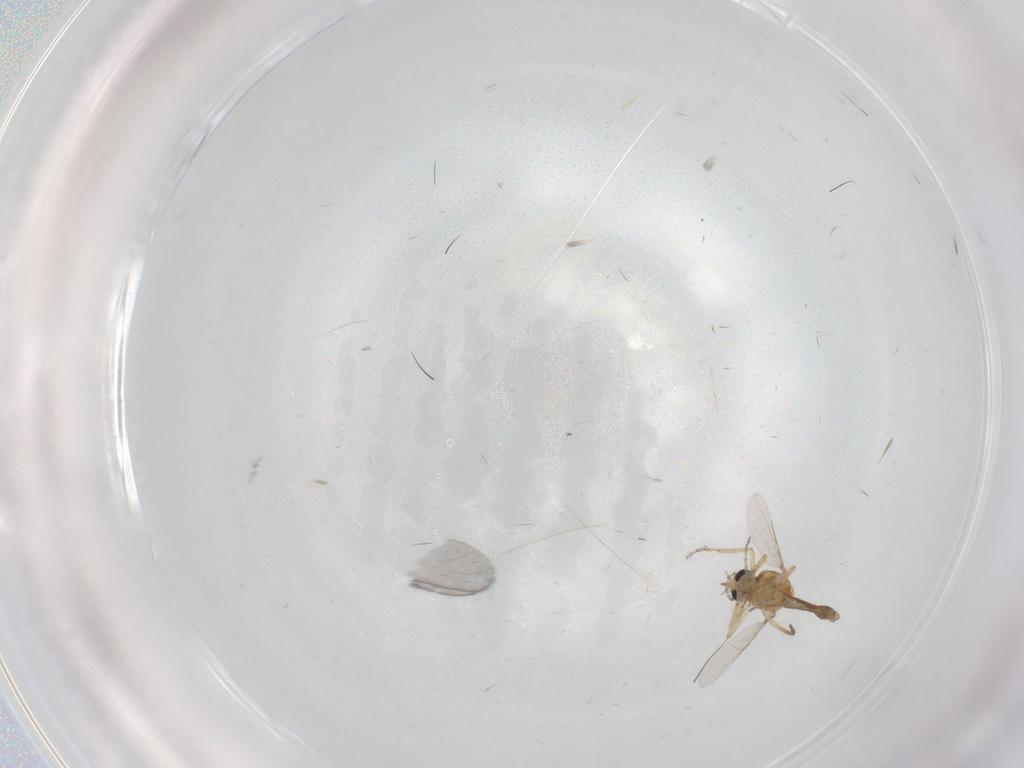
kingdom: Animalia
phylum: Arthropoda
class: Insecta
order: Diptera
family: Ceratopogonidae
